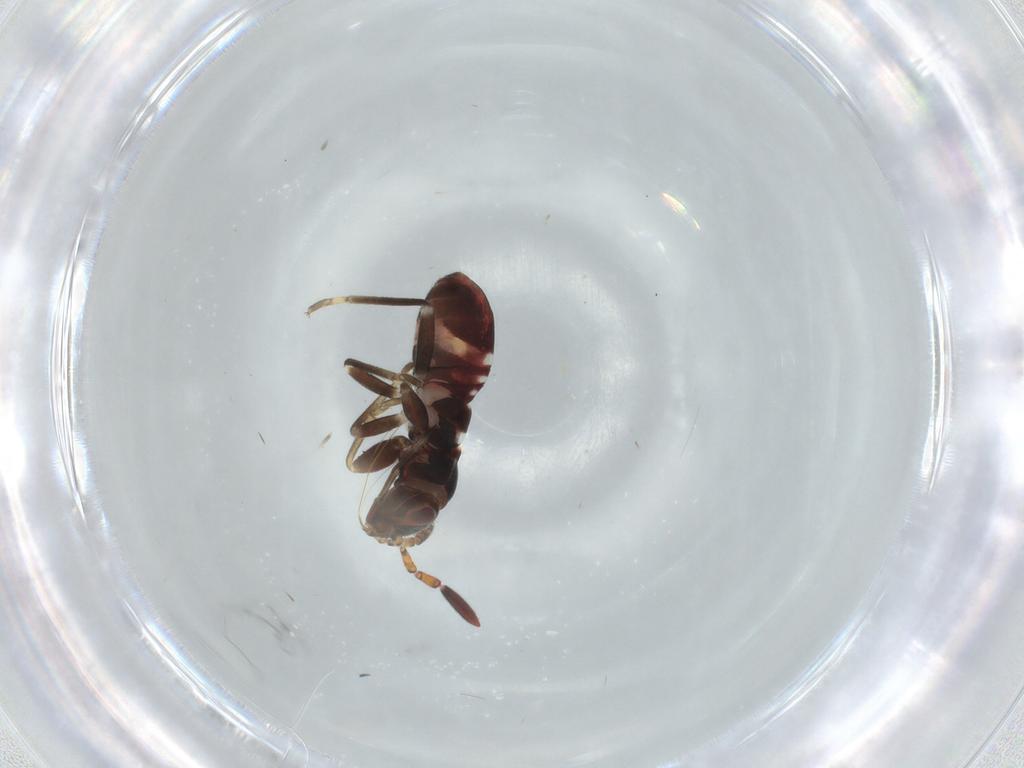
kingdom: Animalia
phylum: Arthropoda
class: Insecta
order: Hemiptera
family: Rhyparochromidae
